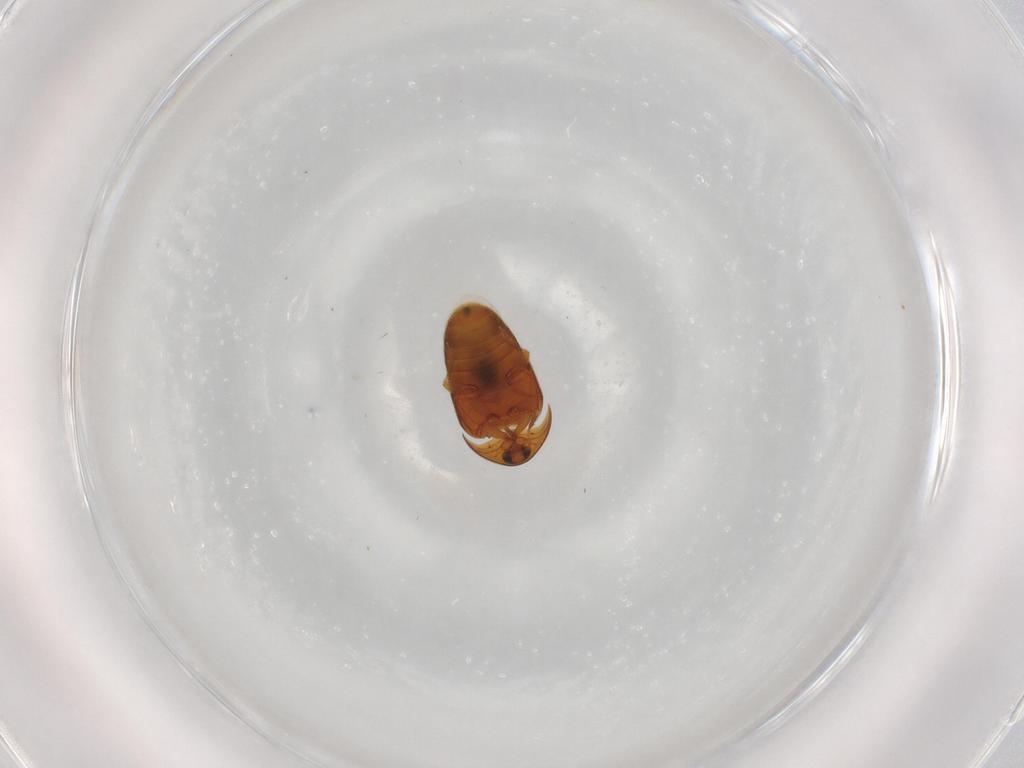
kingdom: Animalia
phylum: Arthropoda
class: Insecta
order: Coleoptera
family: Corylophidae
